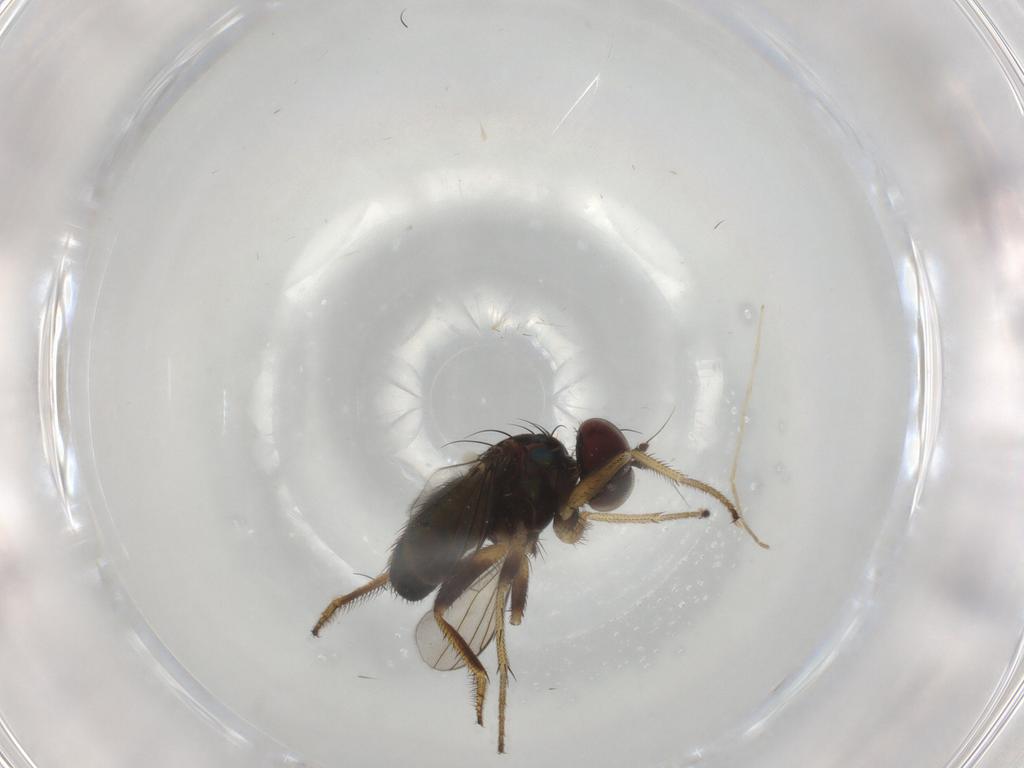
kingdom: Animalia
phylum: Arthropoda
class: Insecta
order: Diptera
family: Dolichopodidae
